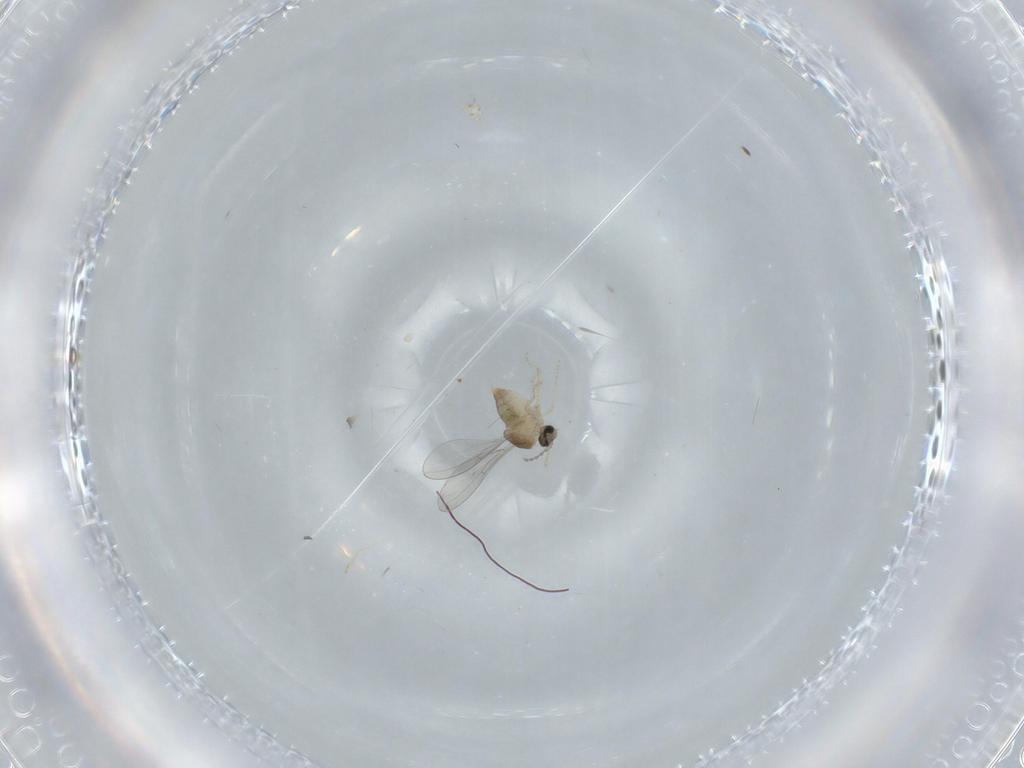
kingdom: Animalia
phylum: Arthropoda
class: Insecta
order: Diptera
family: Cecidomyiidae
